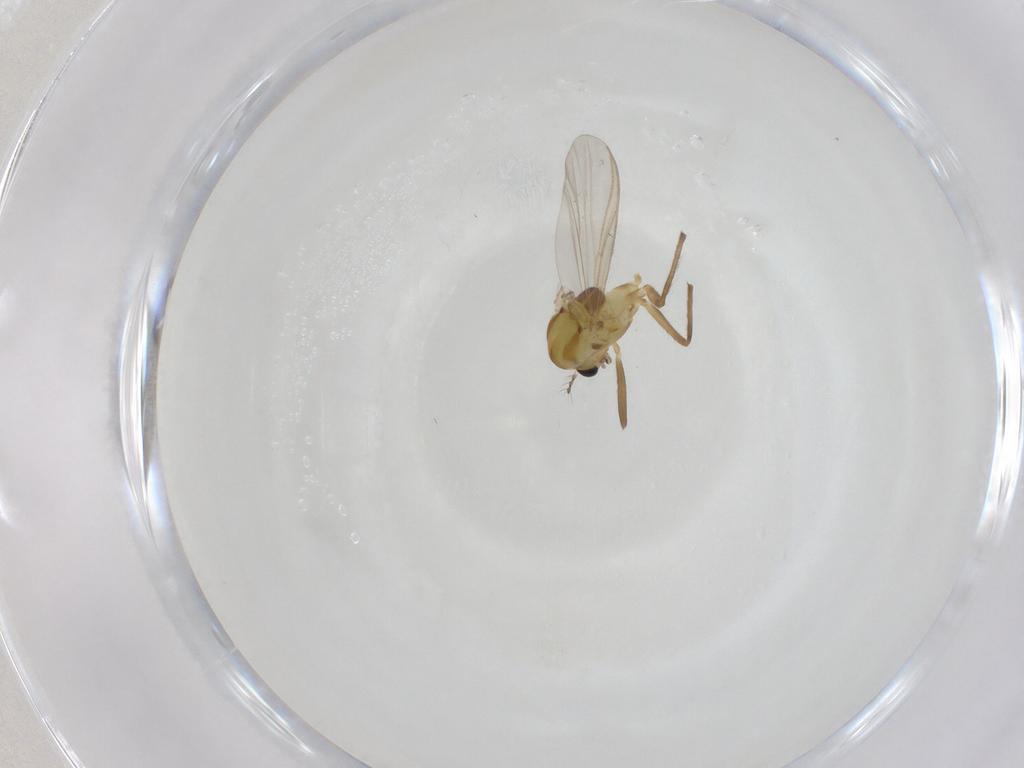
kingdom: Animalia
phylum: Arthropoda
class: Insecta
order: Diptera
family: Chironomidae
